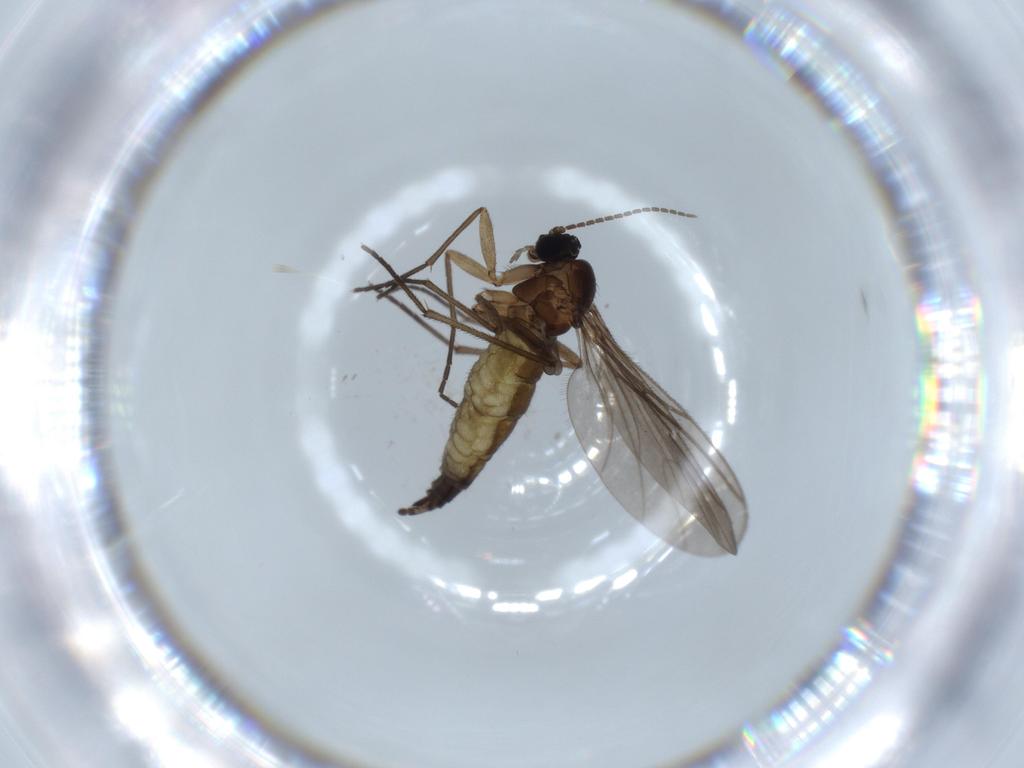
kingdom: Animalia
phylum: Arthropoda
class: Insecta
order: Diptera
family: Sciaridae
